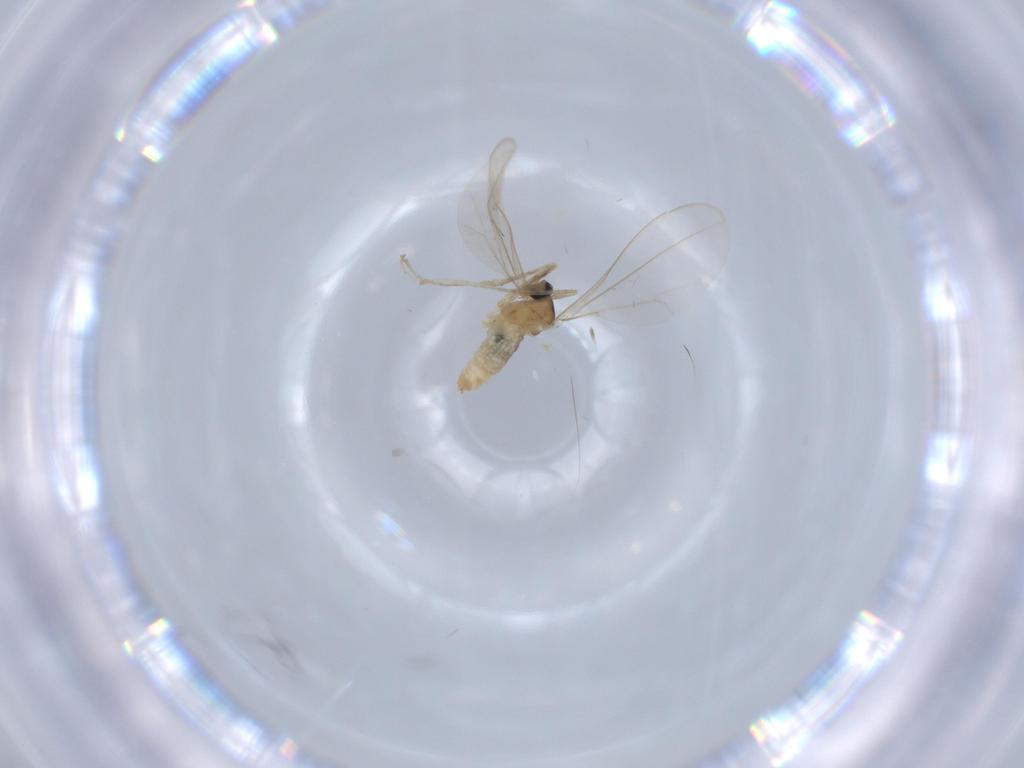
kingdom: Animalia
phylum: Arthropoda
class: Insecta
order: Diptera
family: Cecidomyiidae
